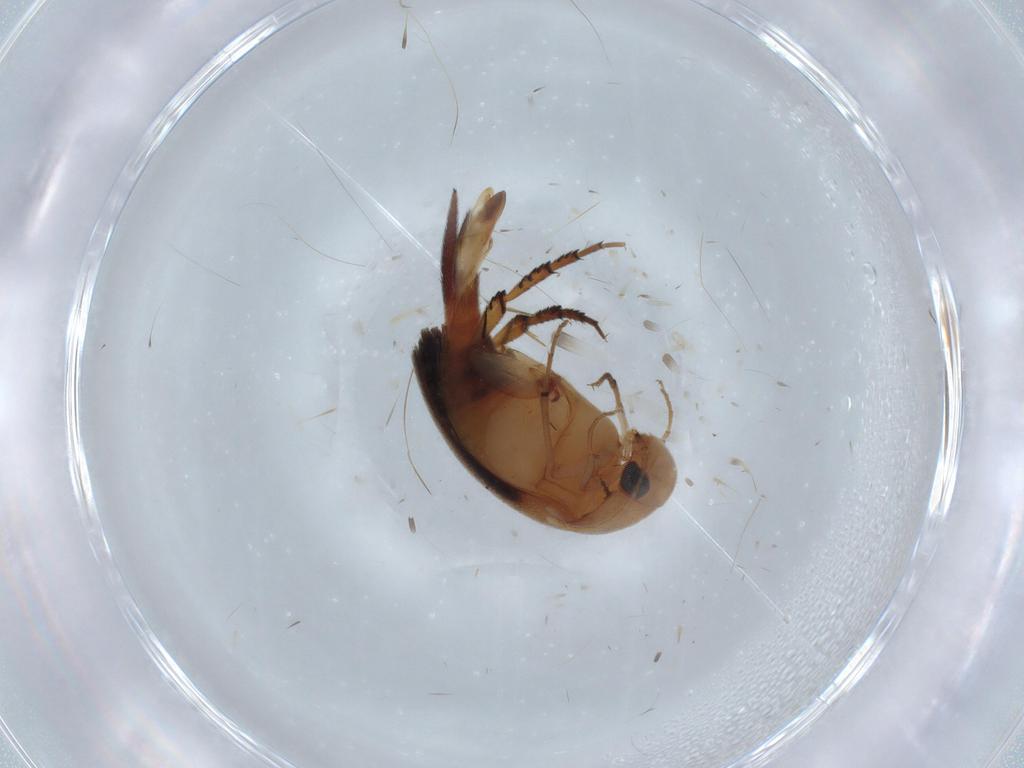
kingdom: Animalia
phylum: Arthropoda
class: Insecta
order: Coleoptera
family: Mordellidae
